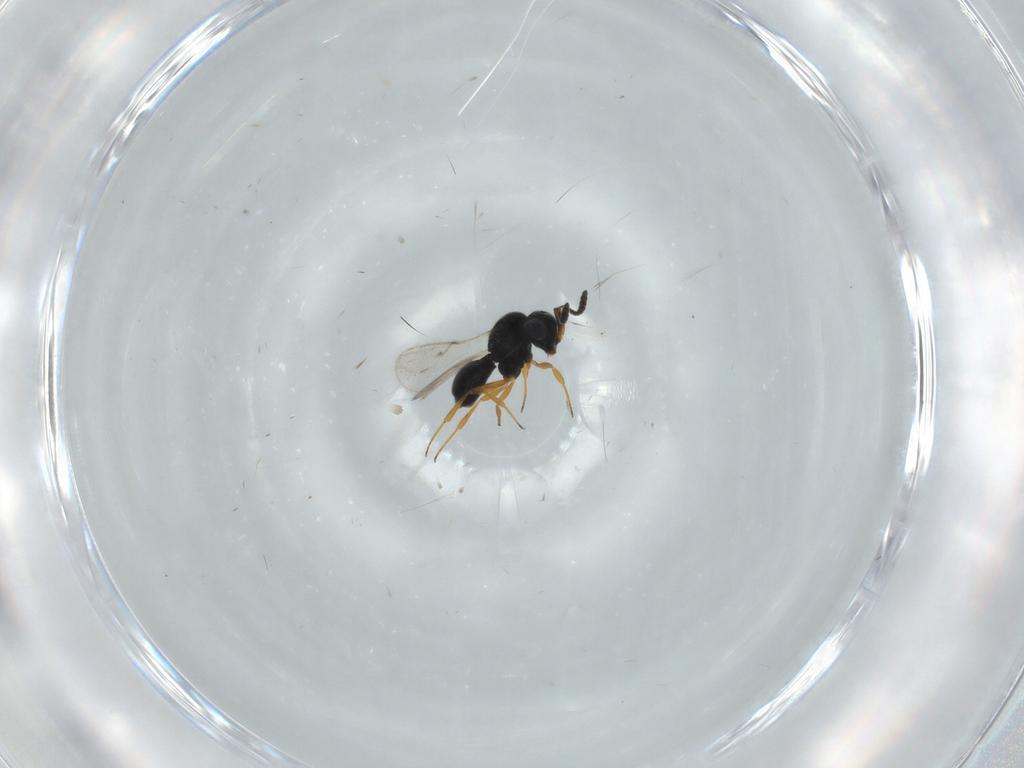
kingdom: Animalia
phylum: Arthropoda
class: Insecta
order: Hymenoptera
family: Scelionidae
